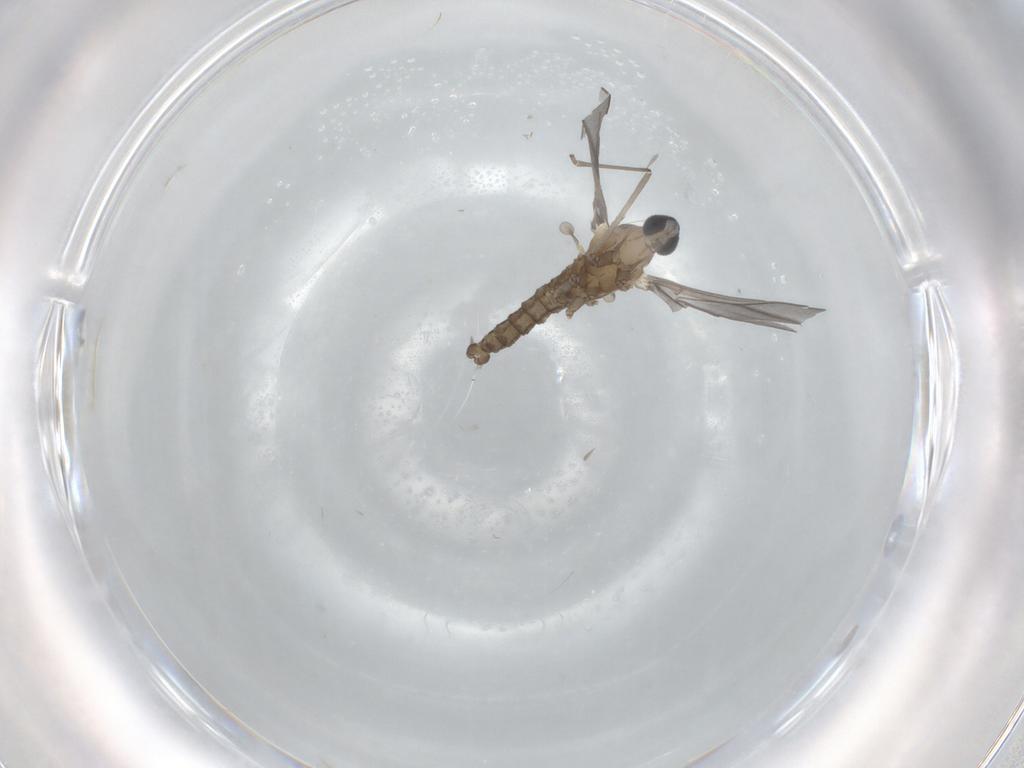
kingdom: Animalia
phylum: Arthropoda
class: Insecta
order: Diptera
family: Cecidomyiidae
